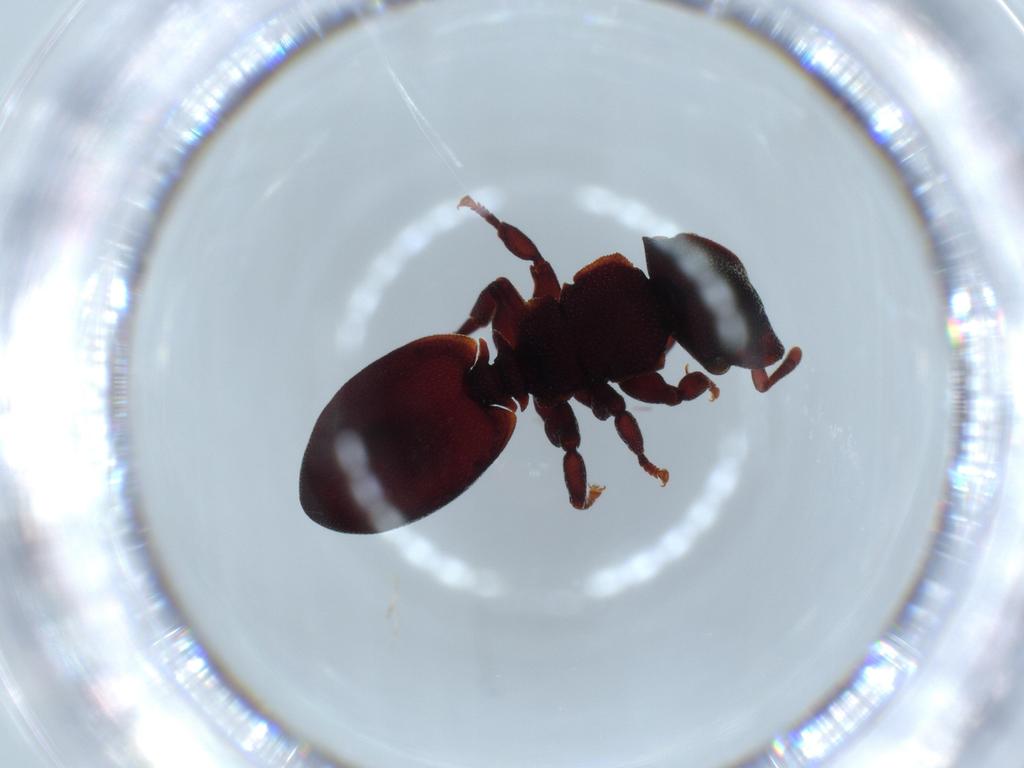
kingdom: Animalia
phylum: Arthropoda
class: Insecta
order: Hymenoptera
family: Formicidae
